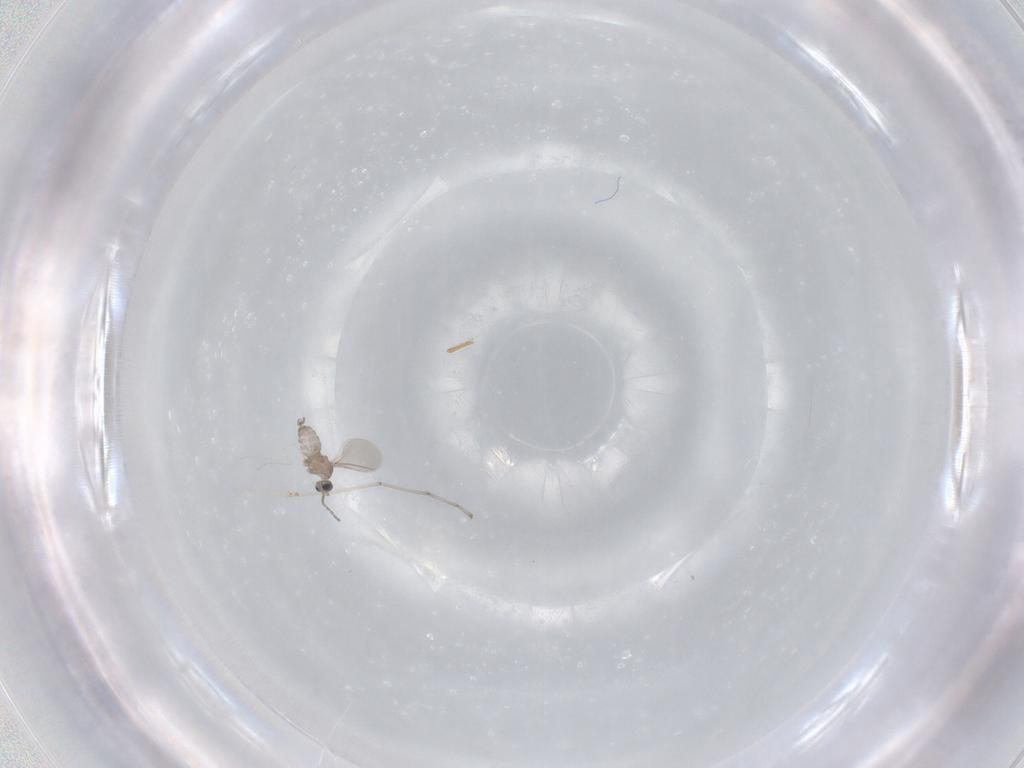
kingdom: Animalia
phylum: Arthropoda
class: Insecta
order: Diptera
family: Cecidomyiidae
